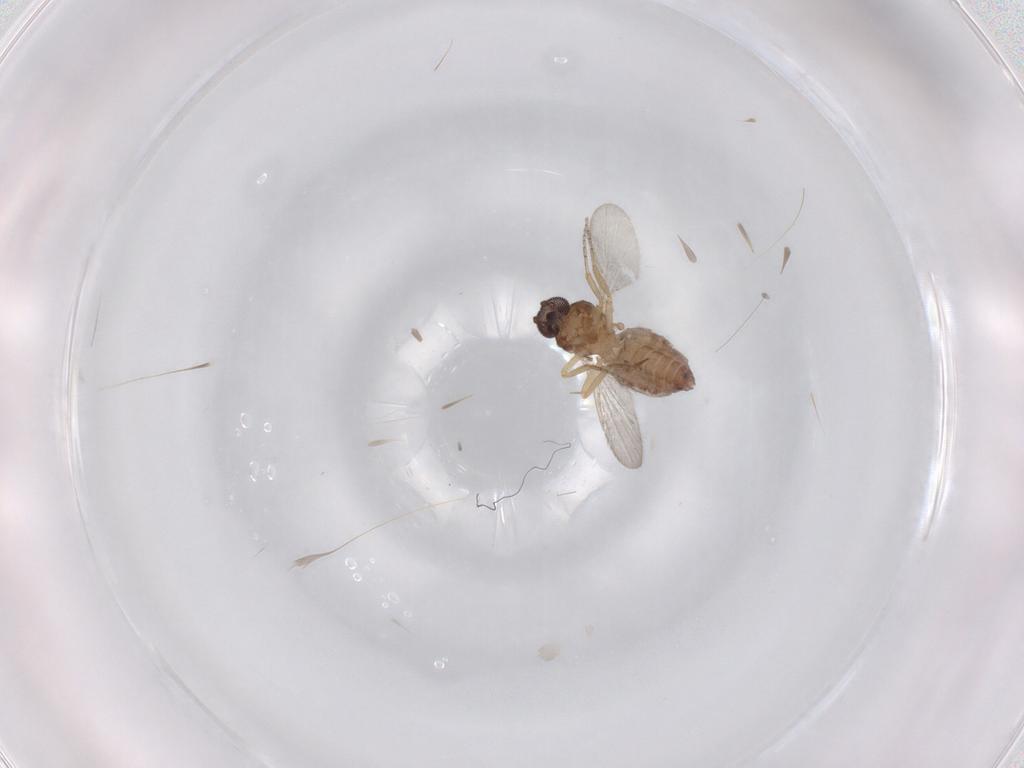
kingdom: Animalia
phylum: Arthropoda
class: Insecta
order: Diptera
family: Ceratopogonidae
